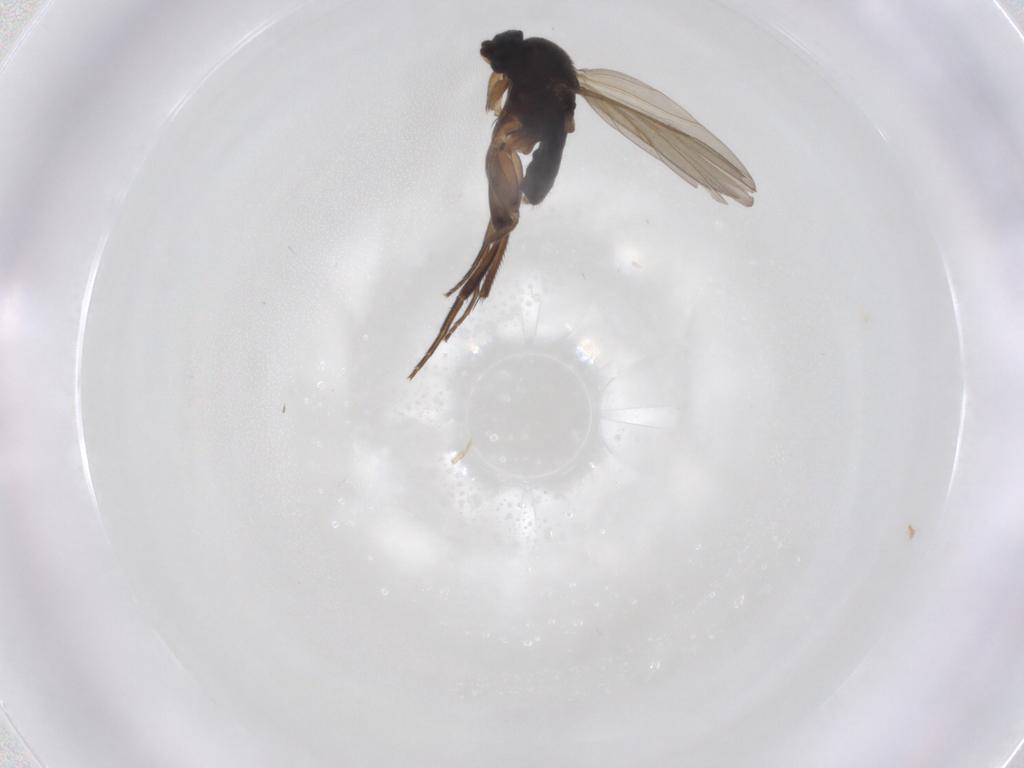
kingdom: Animalia
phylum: Arthropoda
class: Insecta
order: Diptera
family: Phoridae
